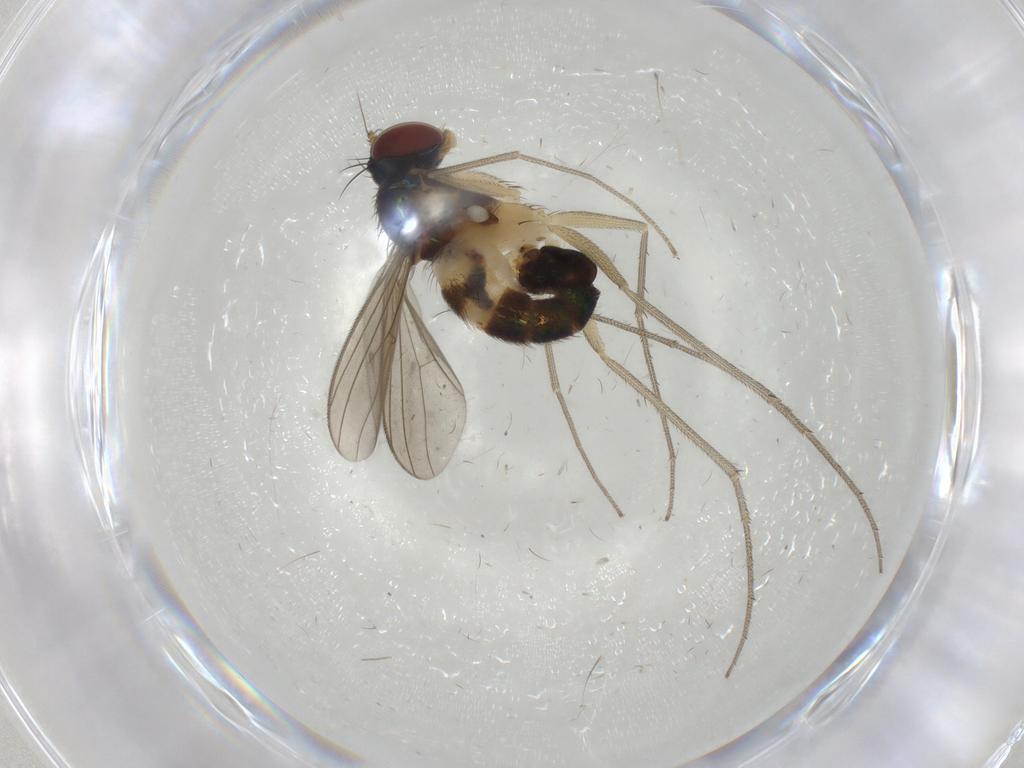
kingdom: Animalia
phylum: Arthropoda
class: Insecta
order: Diptera
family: Dolichopodidae
